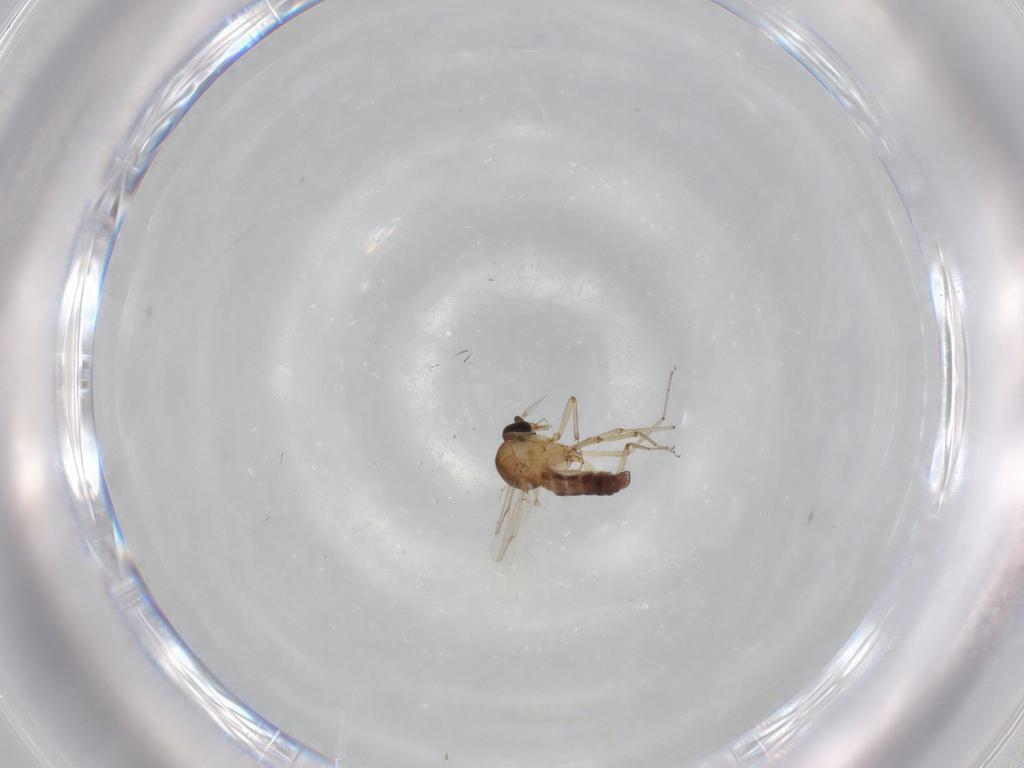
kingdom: Animalia
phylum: Arthropoda
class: Insecta
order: Diptera
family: Ceratopogonidae
